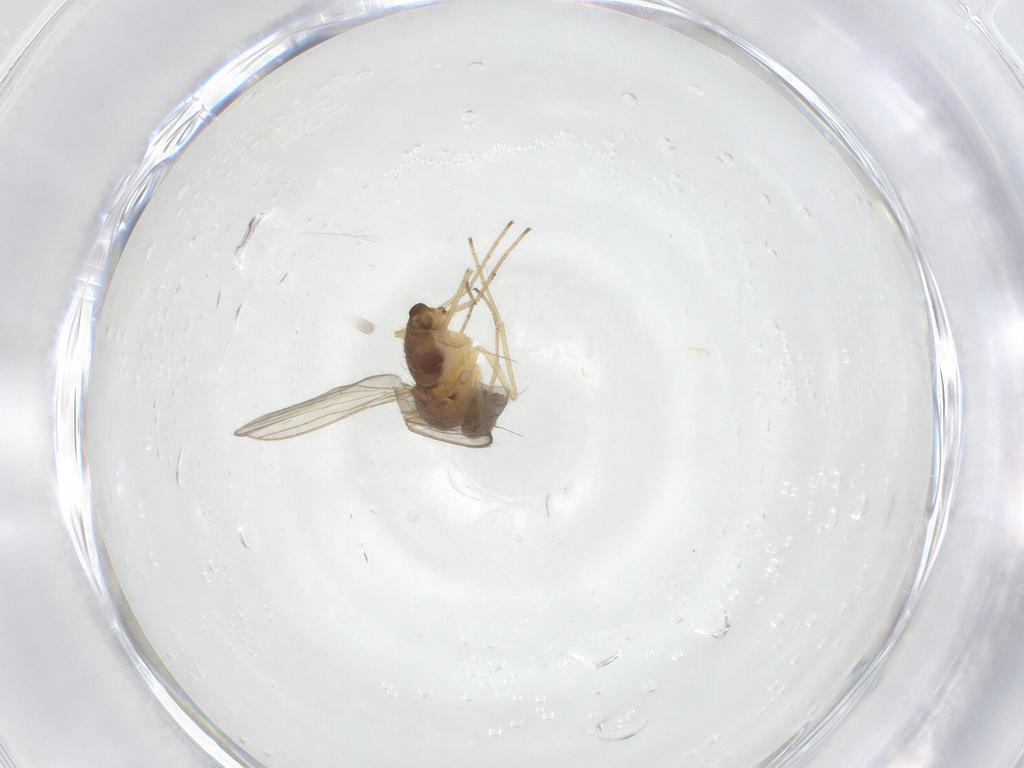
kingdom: Animalia
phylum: Arthropoda
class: Insecta
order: Diptera
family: Dolichopodidae
